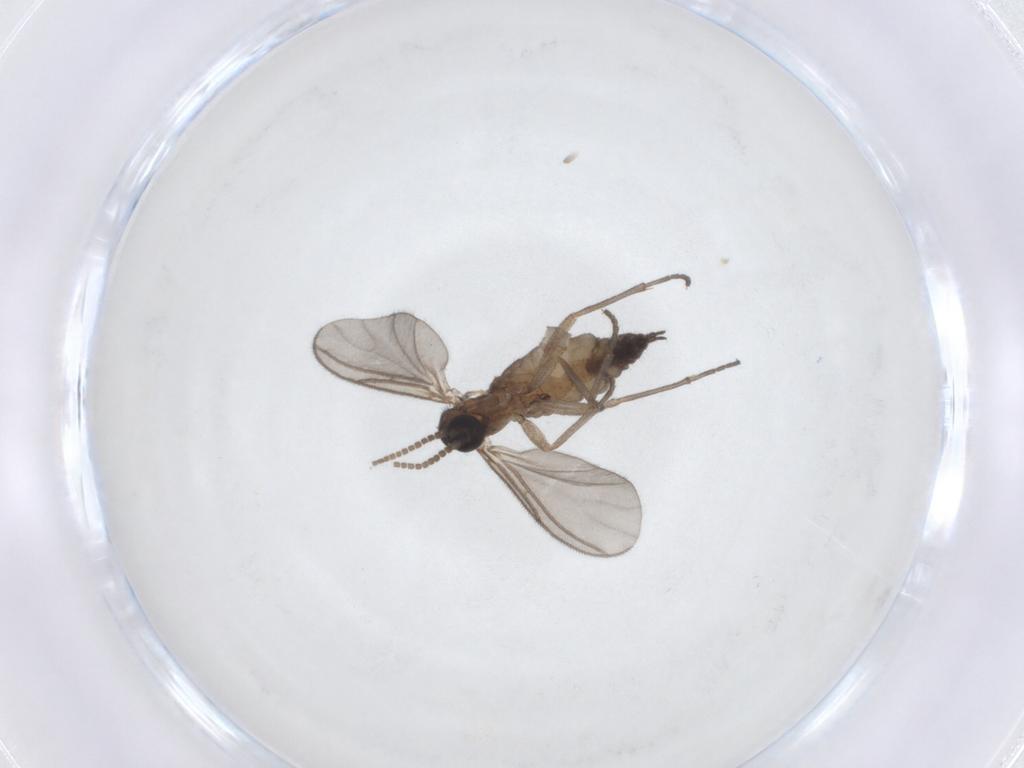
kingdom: Animalia
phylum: Arthropoda
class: Insecta
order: Diptera
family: Sciaridae
